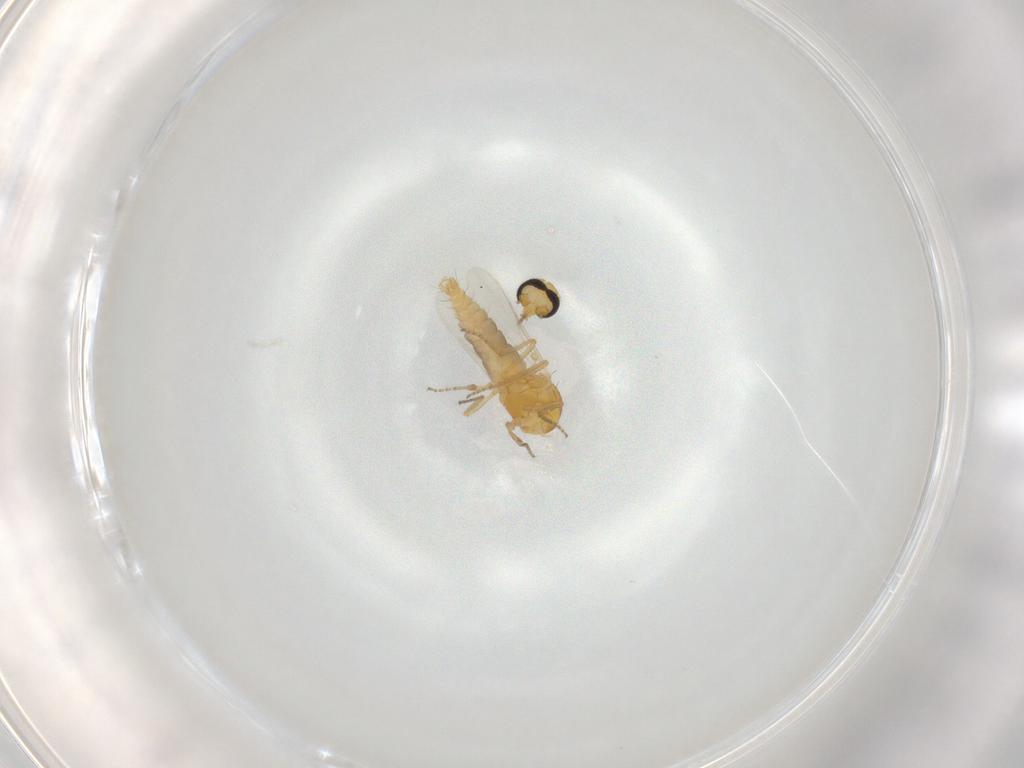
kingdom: Animalia
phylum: Arthropoda
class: Insecta
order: Diptera
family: Ceratopogonidae
